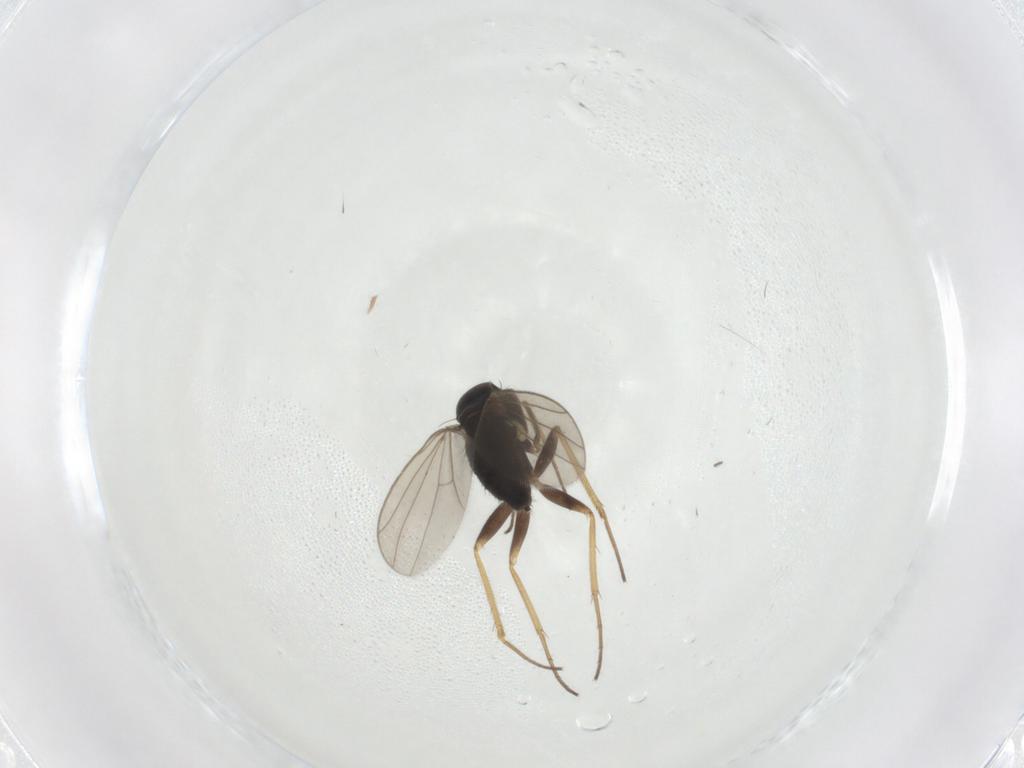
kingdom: Animalia
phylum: Arthropoda
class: Insecta
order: Diptera
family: Dolichopodidae
